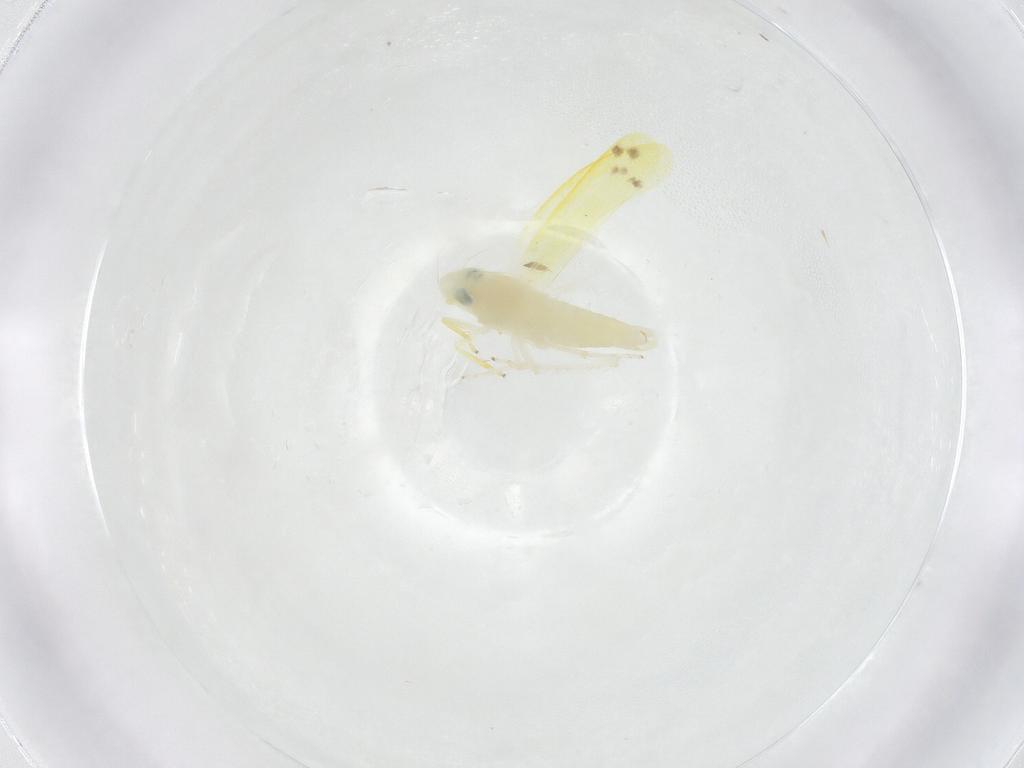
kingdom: Animalia
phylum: Arthropoda
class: Insecta
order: Hemiptera
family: Cicadellidae
